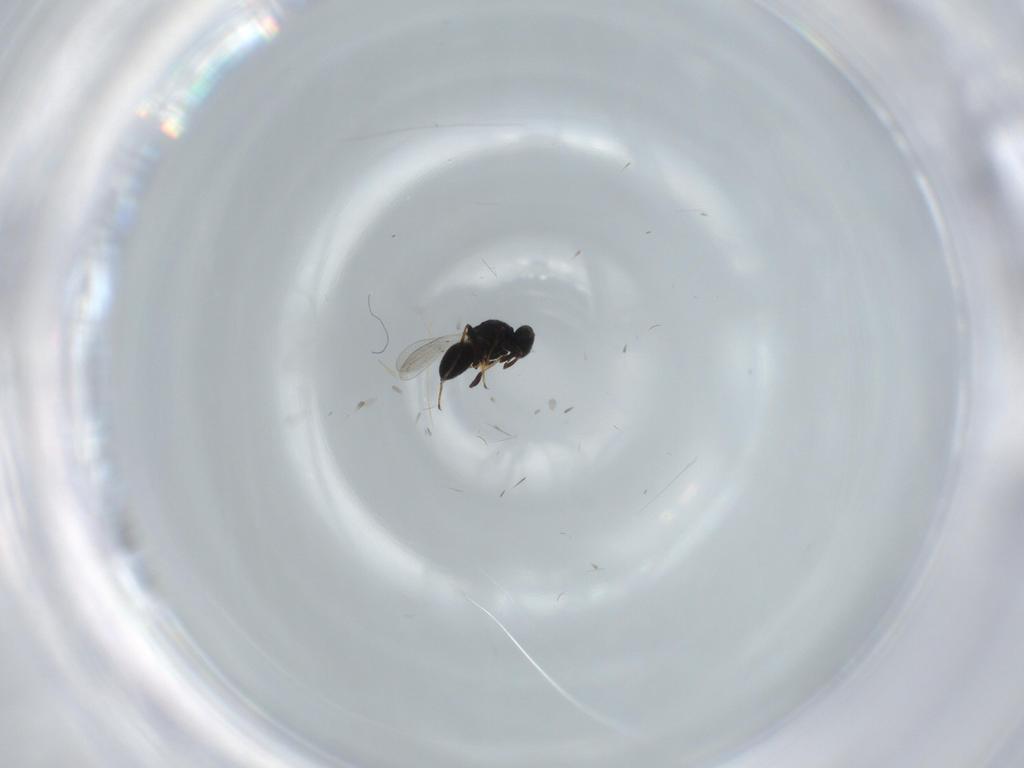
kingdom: Animalia
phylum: Arthropoda
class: Insecta
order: Hymenoptera
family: Platygastridae
